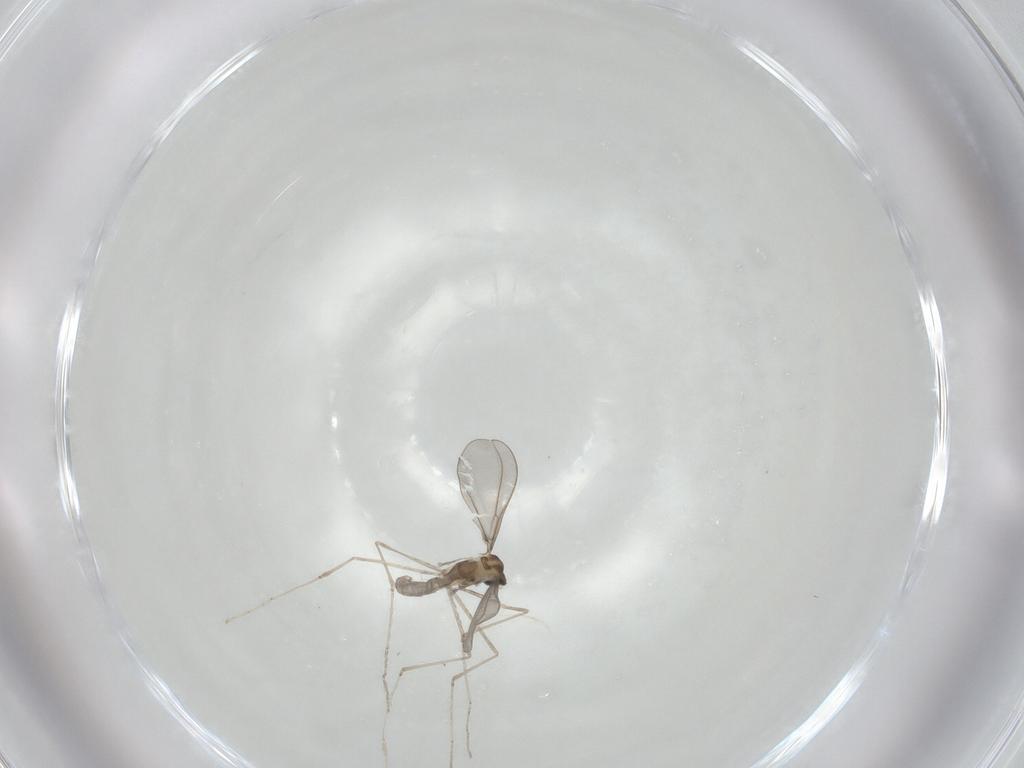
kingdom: Animalia
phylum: Arthropoda
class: Insecta
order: Diptera
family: Cecidomyiidae
